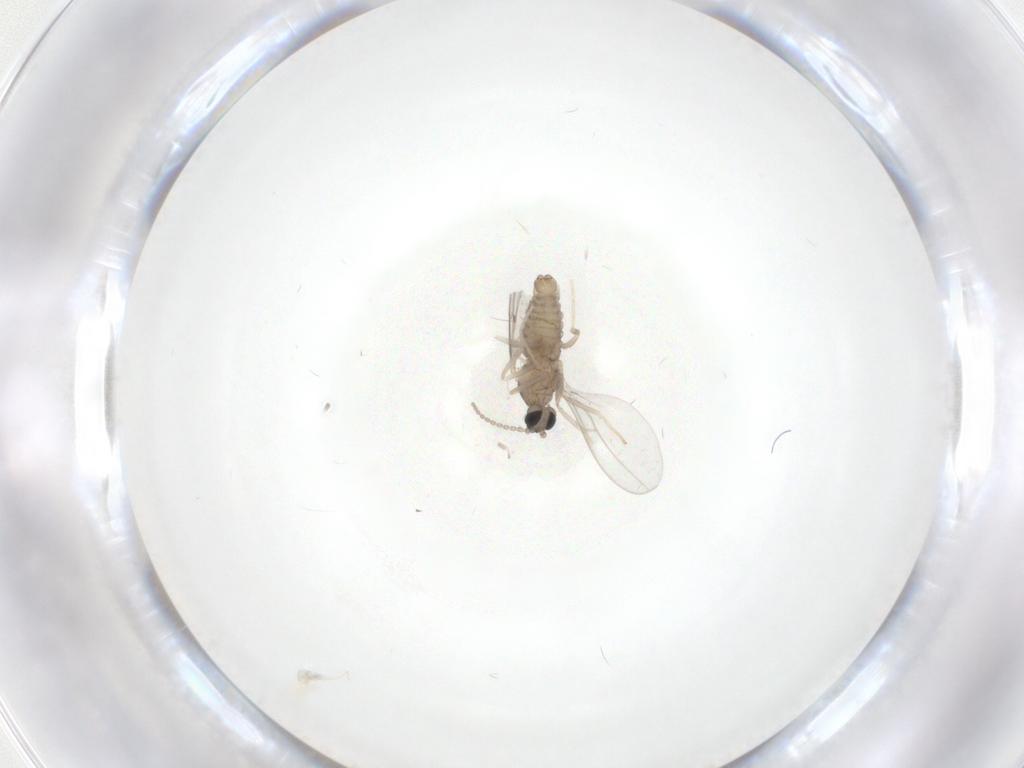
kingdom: Animalia
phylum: Arthropoda
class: Insecta
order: Diptera
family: Cecidomyiidae
